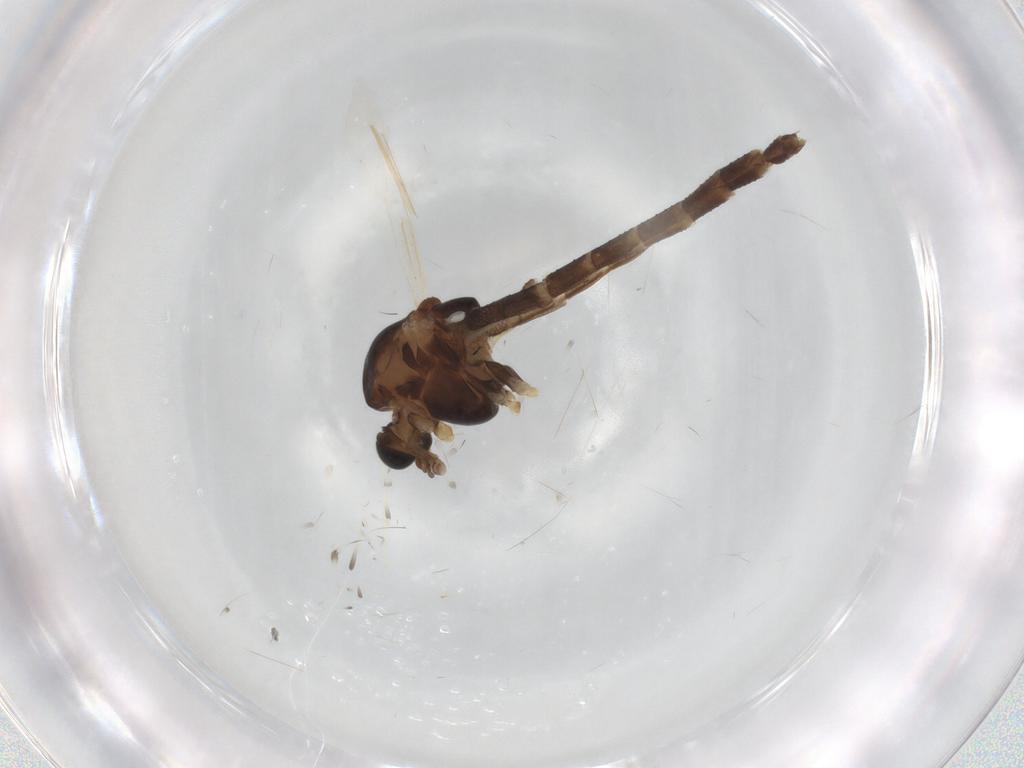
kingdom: Animalia
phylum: Arthropoda
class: Insecta
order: Diptera
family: Chironomidae
